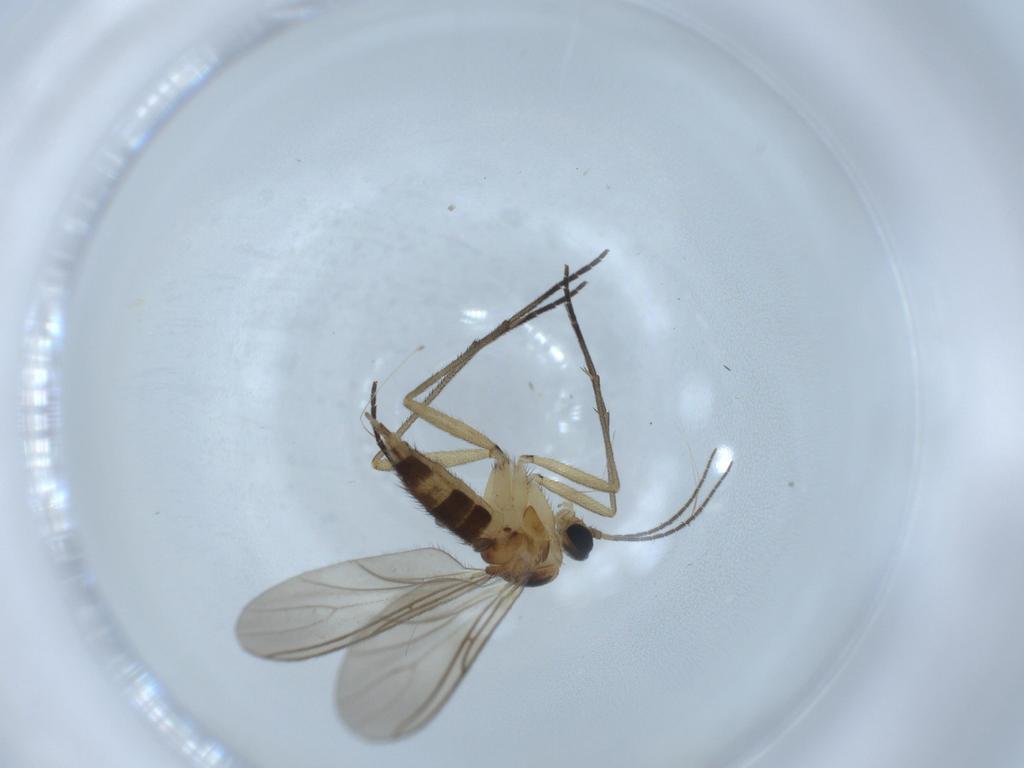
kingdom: Animalia
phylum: Arthropoda
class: Insecta
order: Diptera
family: Sciaridae
